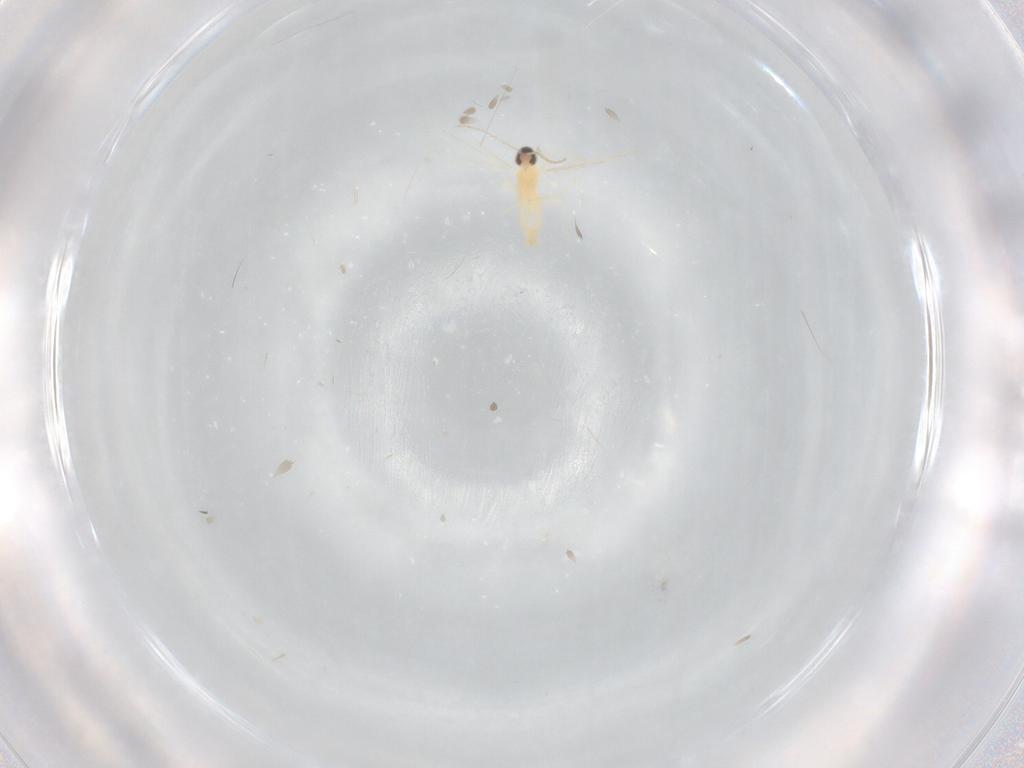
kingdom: Animalia
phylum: Arthropoda
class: Insecta
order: Diptera
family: Cecidomyiidae
